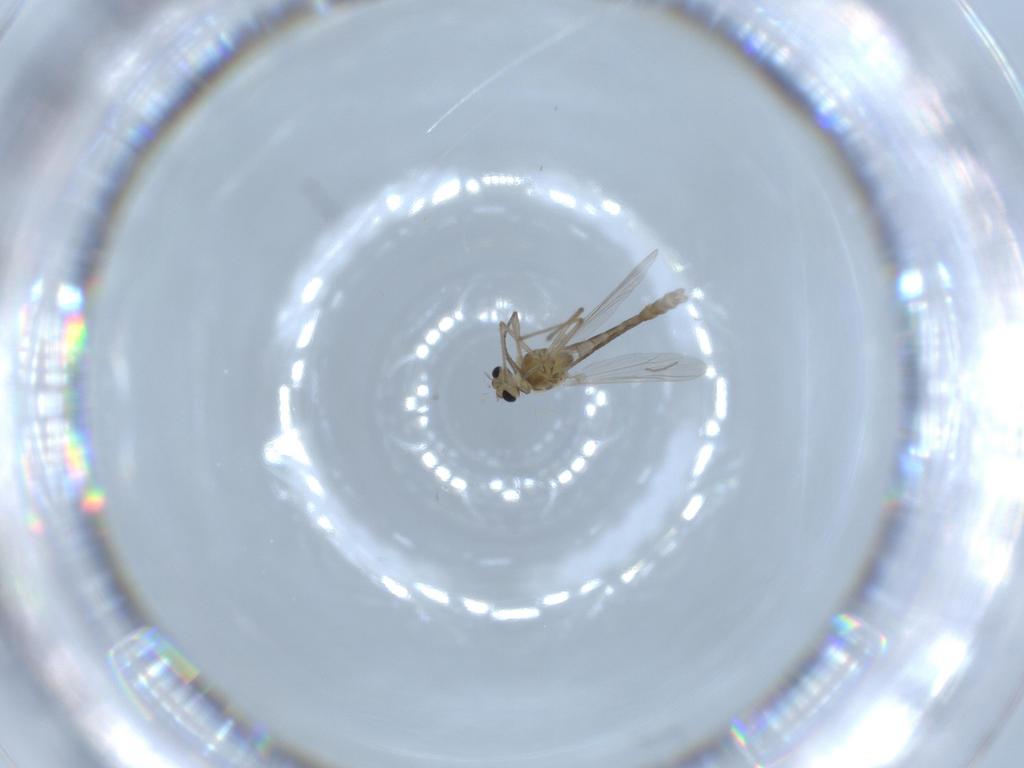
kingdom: Animalia
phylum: Arthropoda
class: Insecta
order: Diptera
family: Chironomidae
